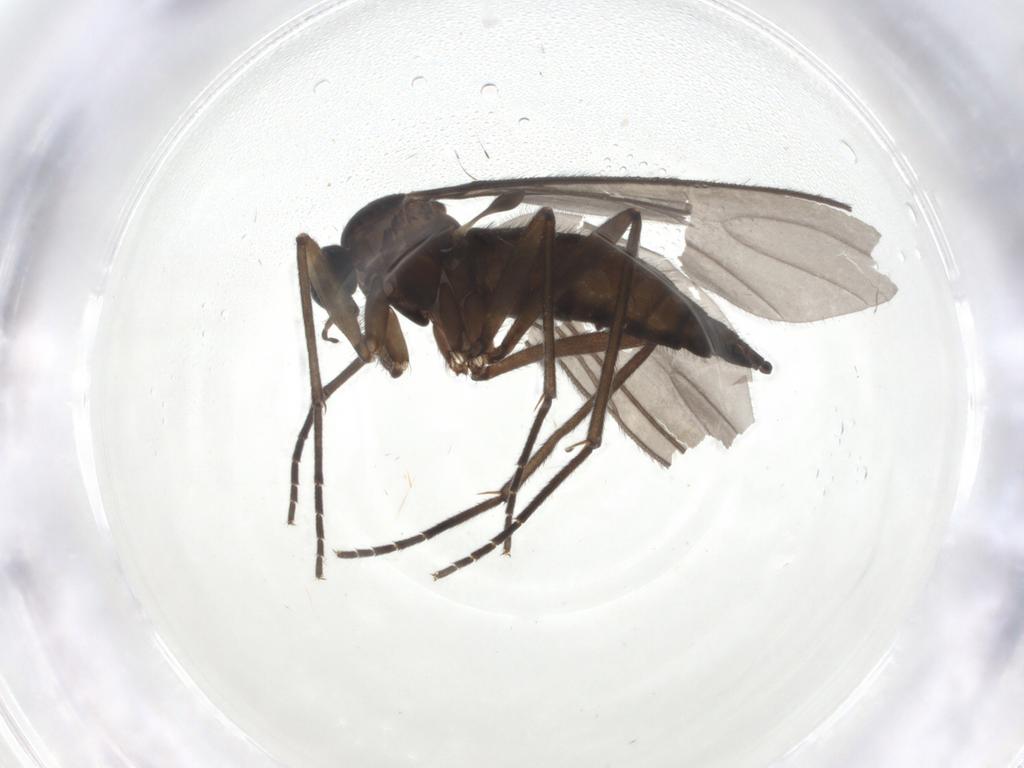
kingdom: Animalia
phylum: Arthropoda
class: Insecta
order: Diptera
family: Sciaridae
